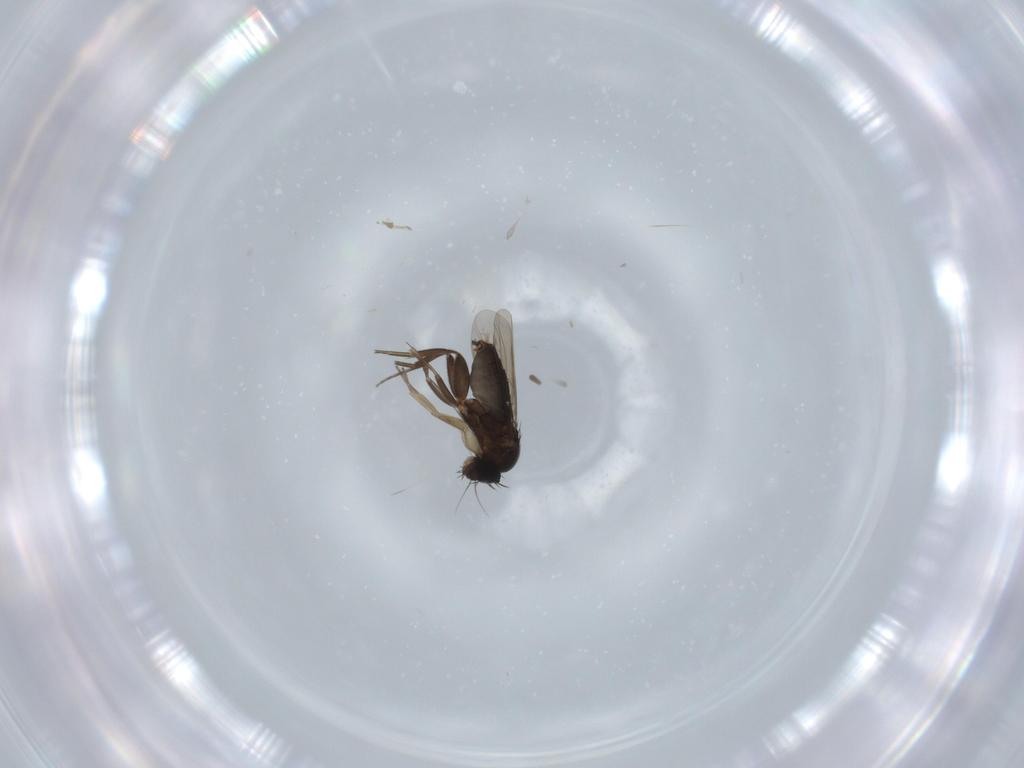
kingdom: Animalia
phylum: Arthropoda
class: Insecta
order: Diptera
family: Phoridae
